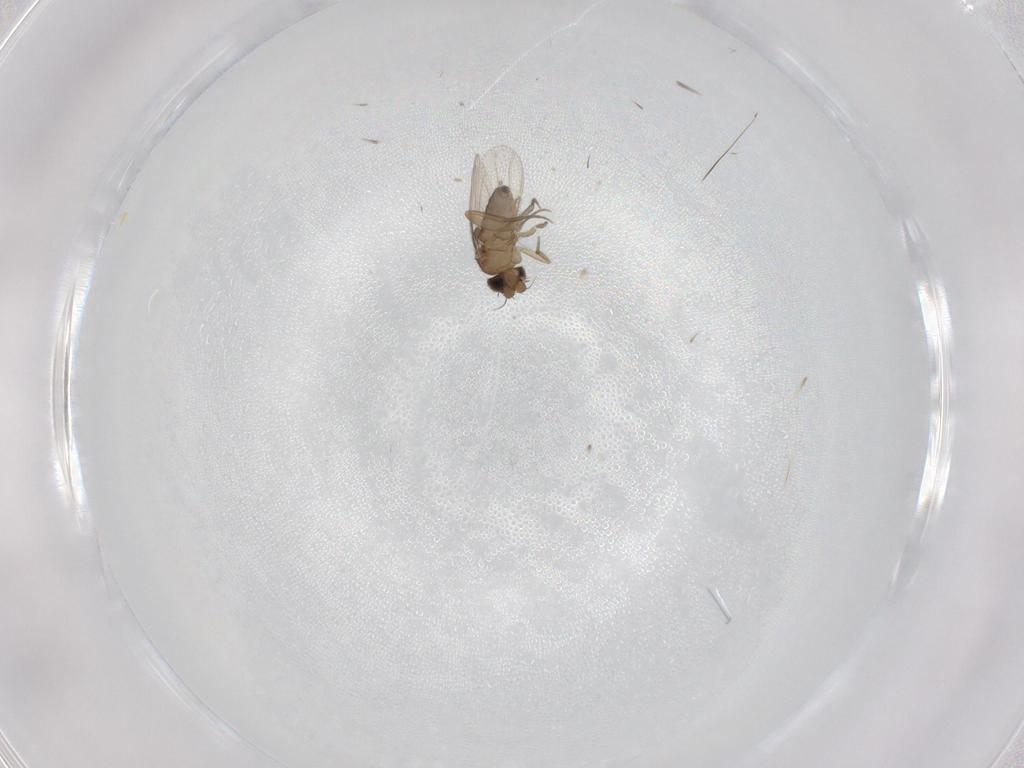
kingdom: Animalia
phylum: Arthropoda
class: Insecta
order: Diptera
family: Phoridae
